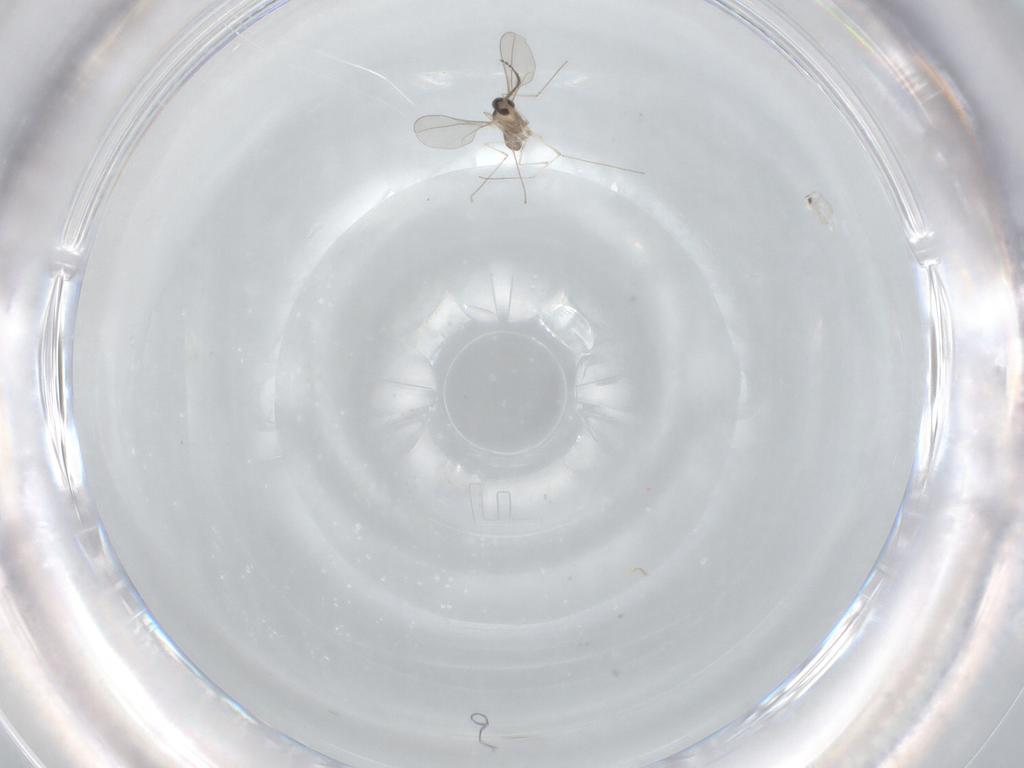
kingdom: Animalia
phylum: Arthropoda
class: Insecta
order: Diptera
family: Cecidomyiidae
